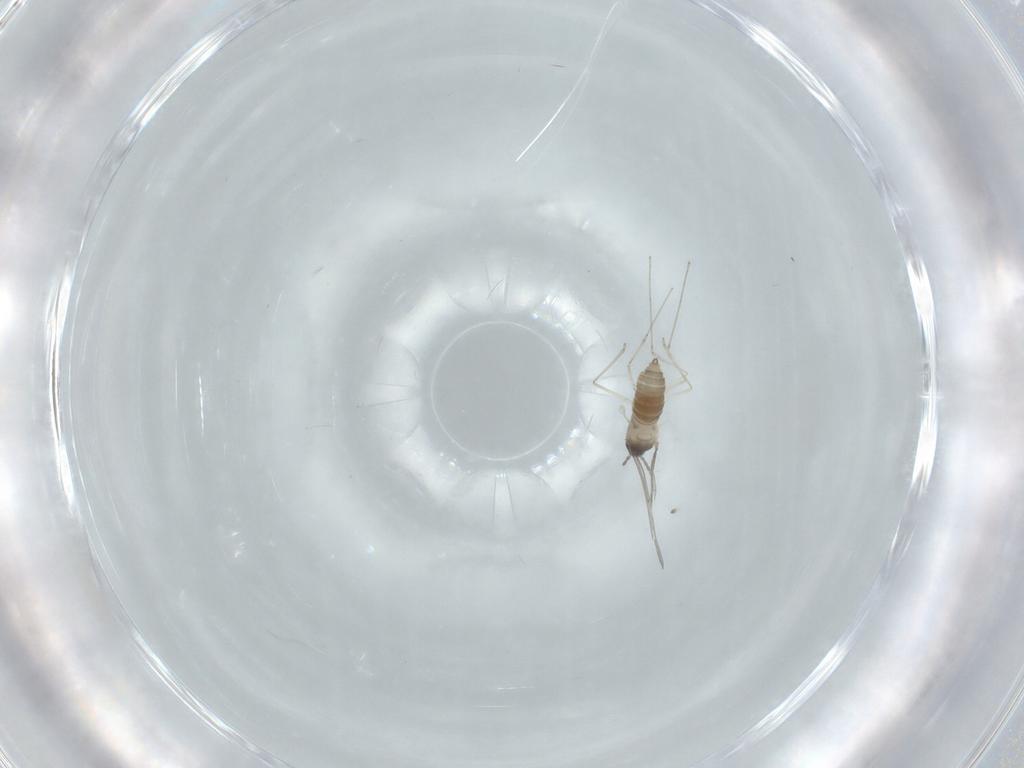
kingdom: Animalia
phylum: Arthropoda
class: Insecta
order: Diptera
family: Cecidomyiidae
